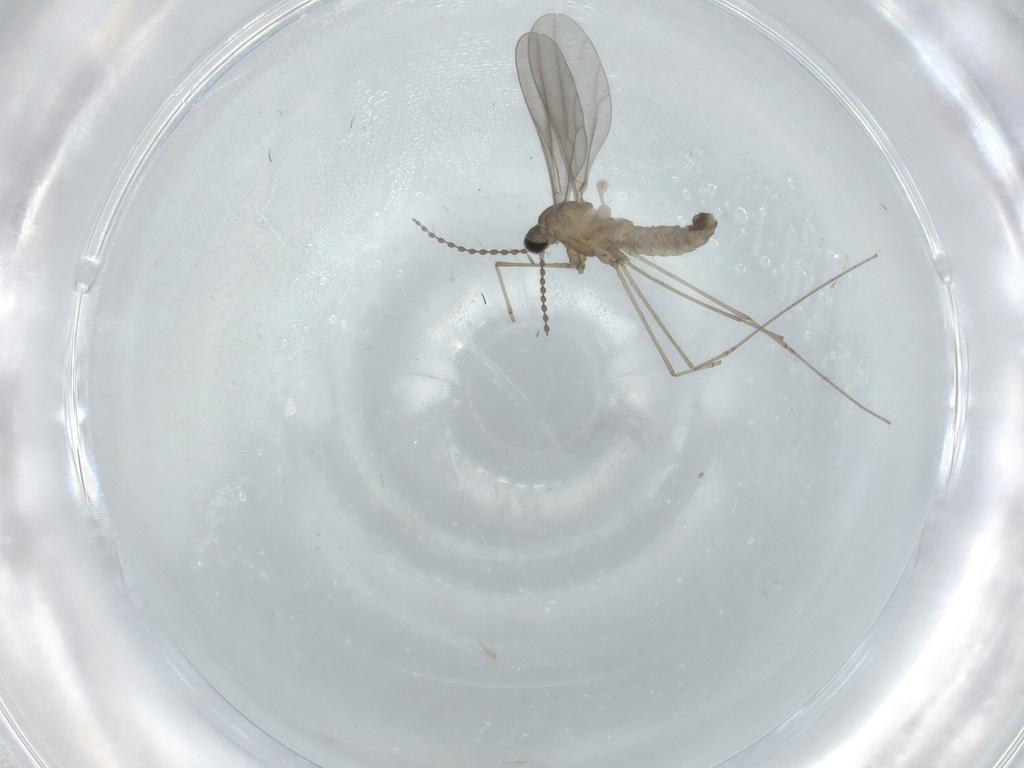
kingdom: Animalia
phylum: Arthropoda
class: Insecta
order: Diptera
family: Cecidomyiidae
